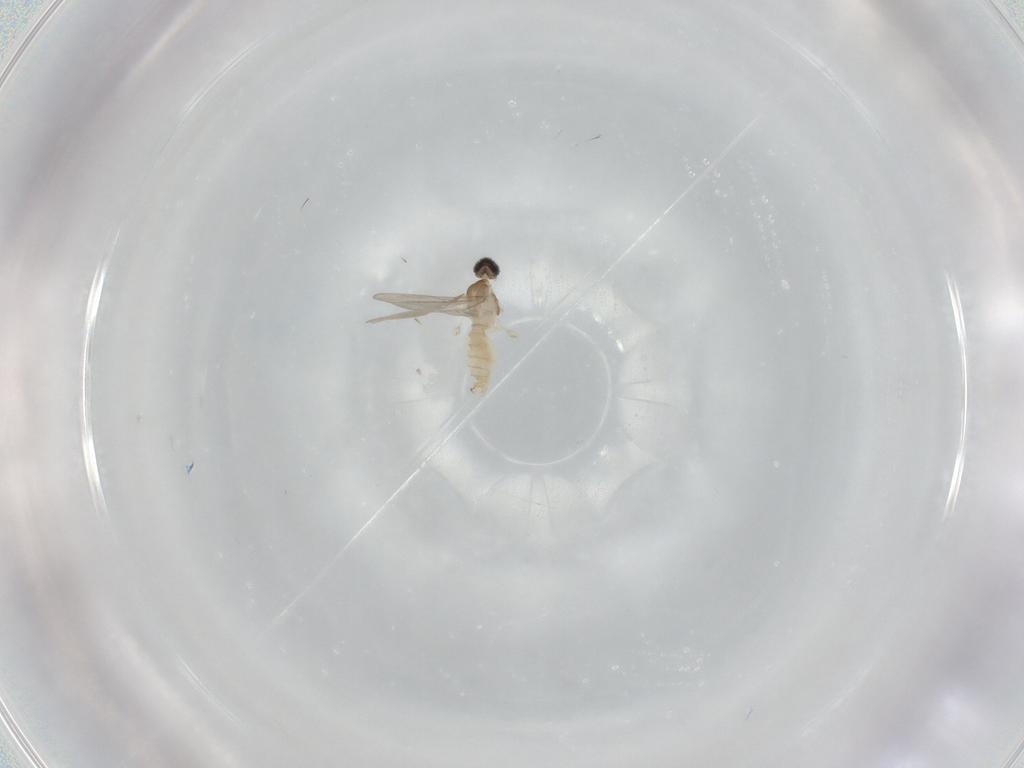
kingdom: Animalia
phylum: Arthropoda
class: Insecta
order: Diptera
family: Cecidomyiidae
